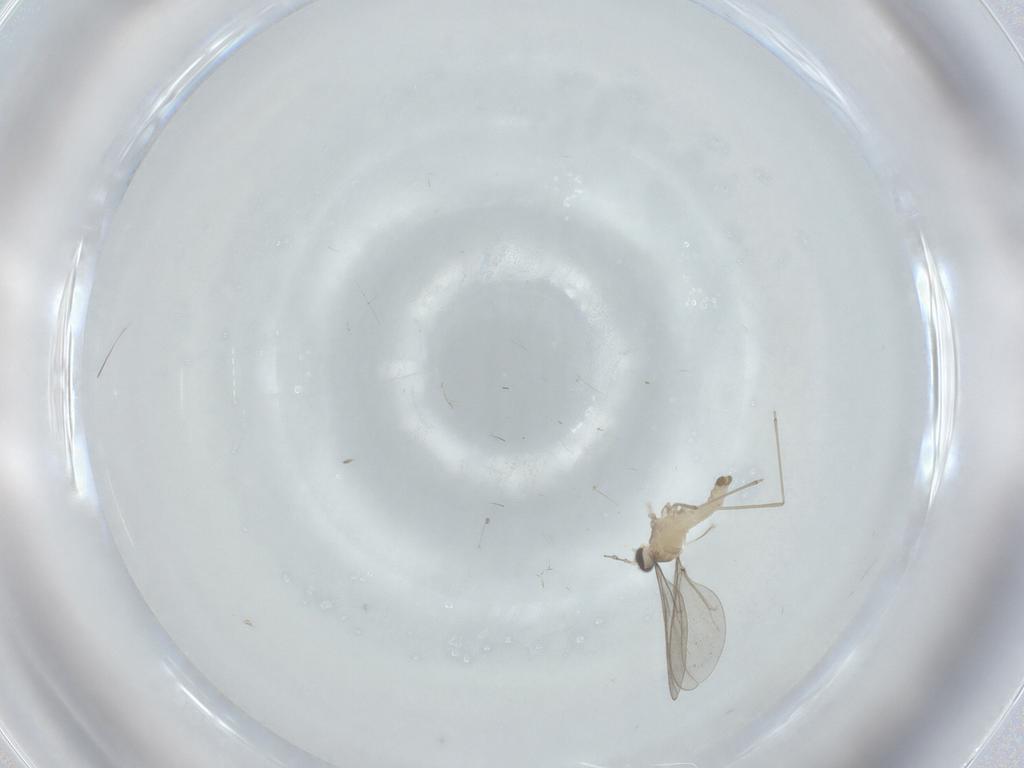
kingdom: Animalia
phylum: Arthropoda
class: Insecta
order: Diptera
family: Cecidomyiidae
